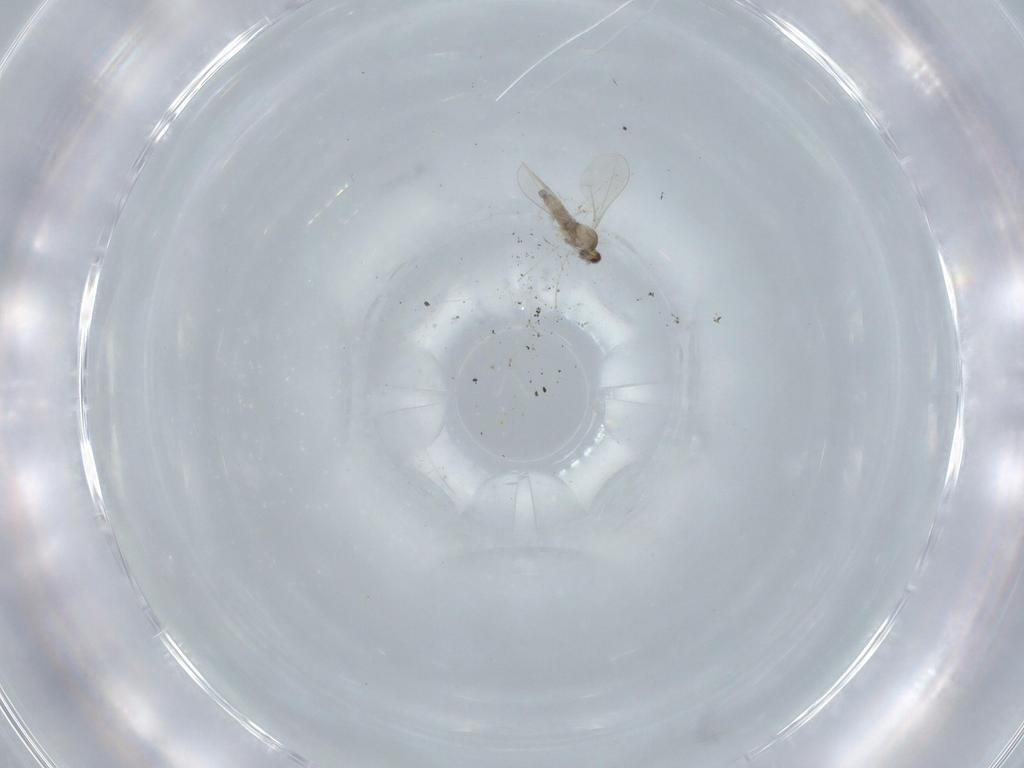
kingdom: Animalia
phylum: Arthropoda
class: Insecta
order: Diptera
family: Cecidomyiidae
